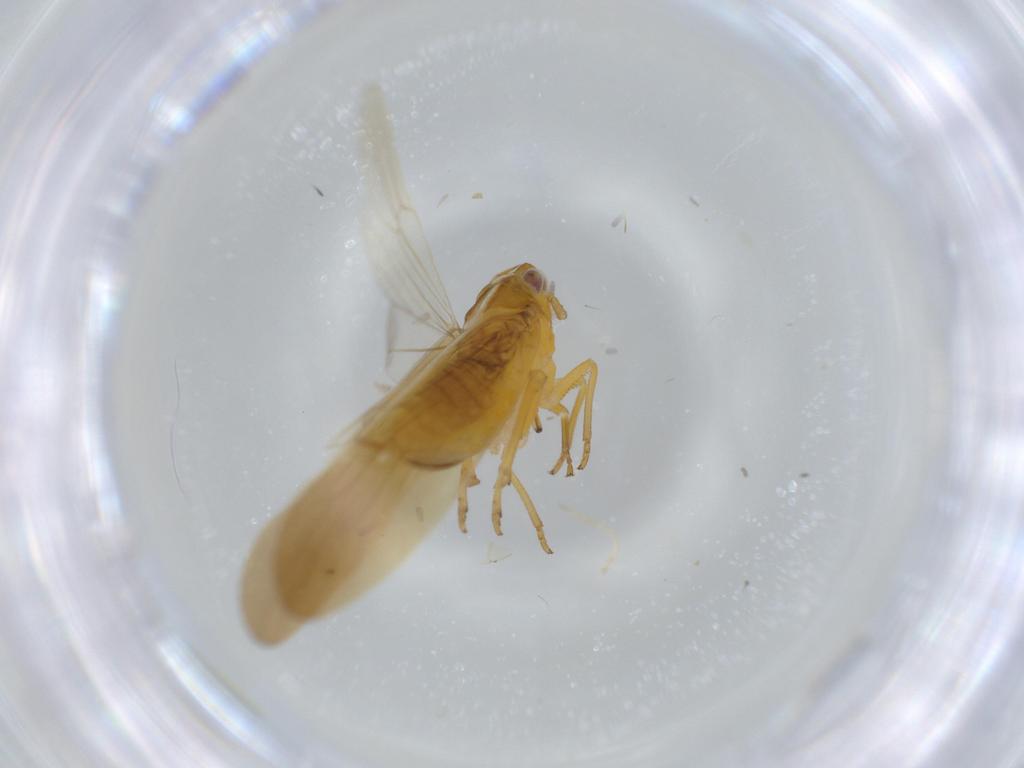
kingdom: Animalia
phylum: Arthropoda
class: Insecta
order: Hemiptera
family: Delphacidae
